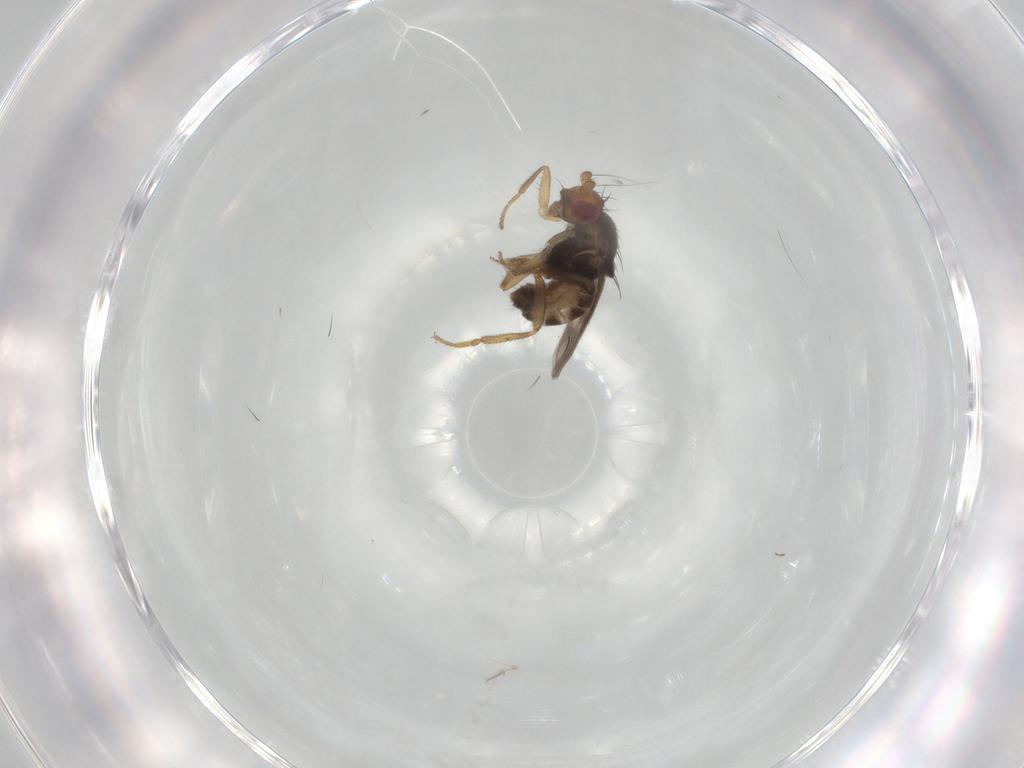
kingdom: Animalia
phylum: Arthropoda
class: Insecta
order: Diptera
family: Sphaeroceridae
